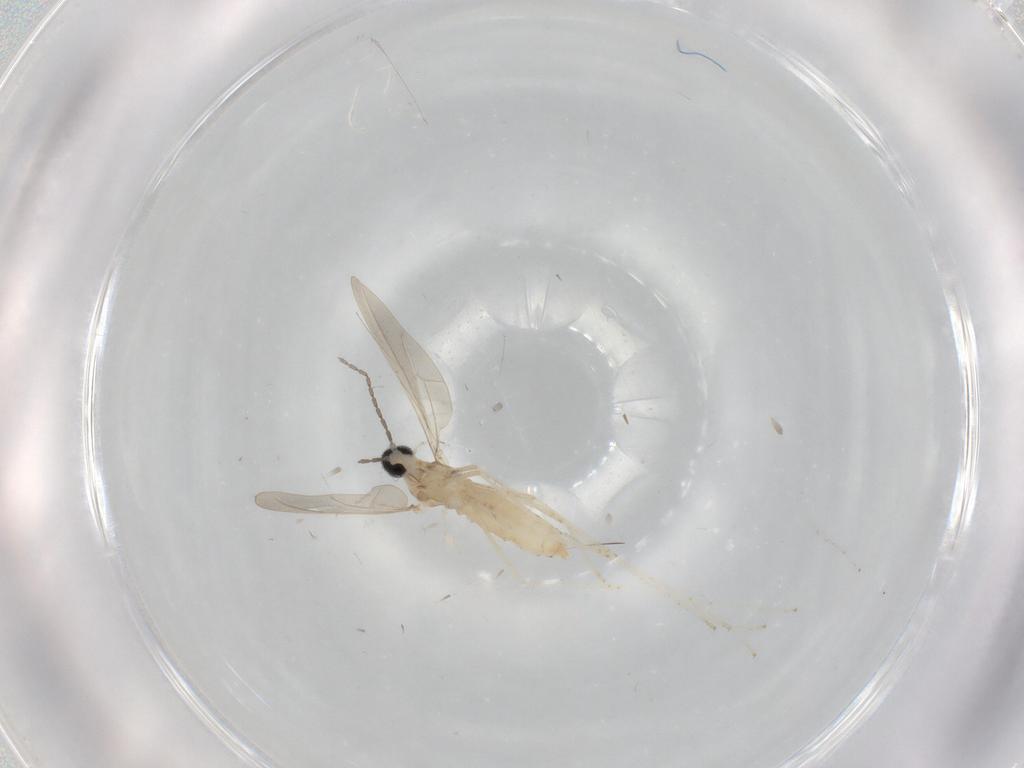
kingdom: Animalia
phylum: Arthropoda
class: Insecta
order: Diptera
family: Cecidomyiidae
